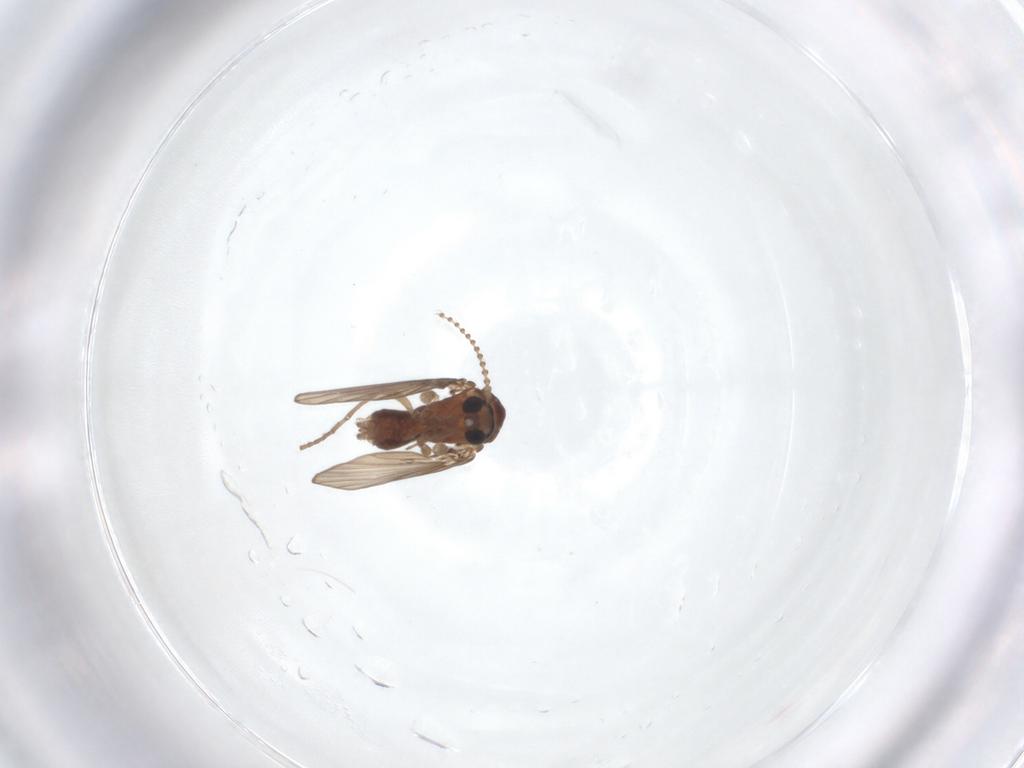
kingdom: Animalia
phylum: Arthropoda
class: Insecta
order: Diptera
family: Psychodidae
